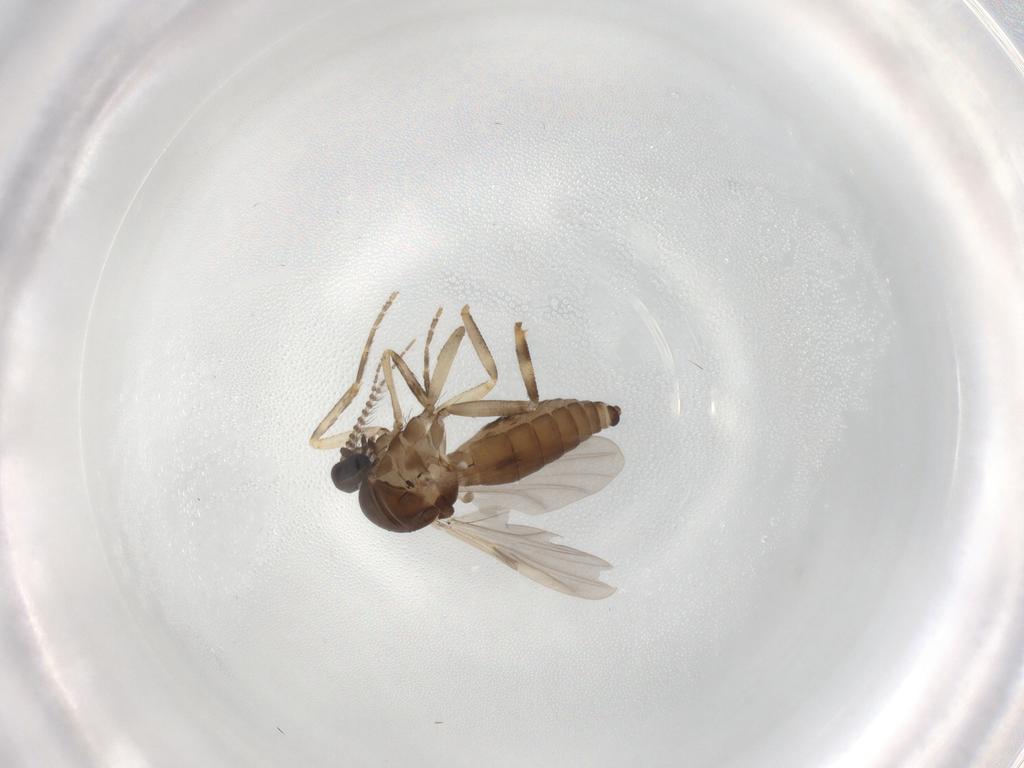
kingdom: Animalia
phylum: Arthropoda
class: Insecta
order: Diptera
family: Ceratopogonidae
